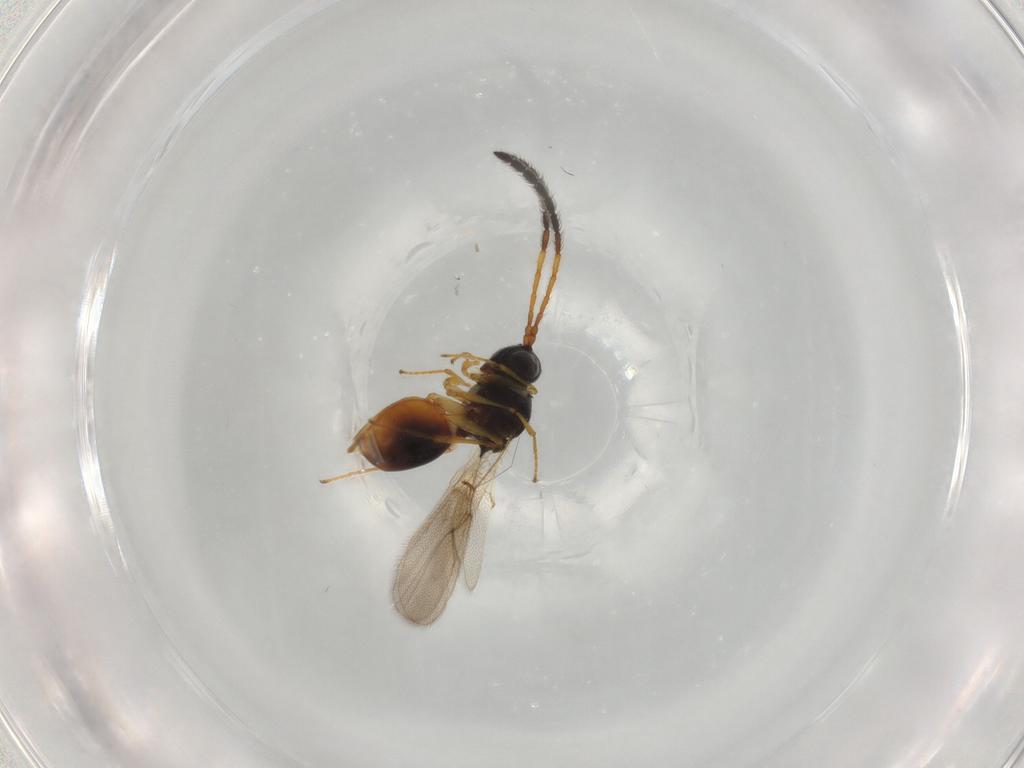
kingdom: Animalia
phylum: Arthropoda
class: Insecta
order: Hymenoptera
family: Figitidae
